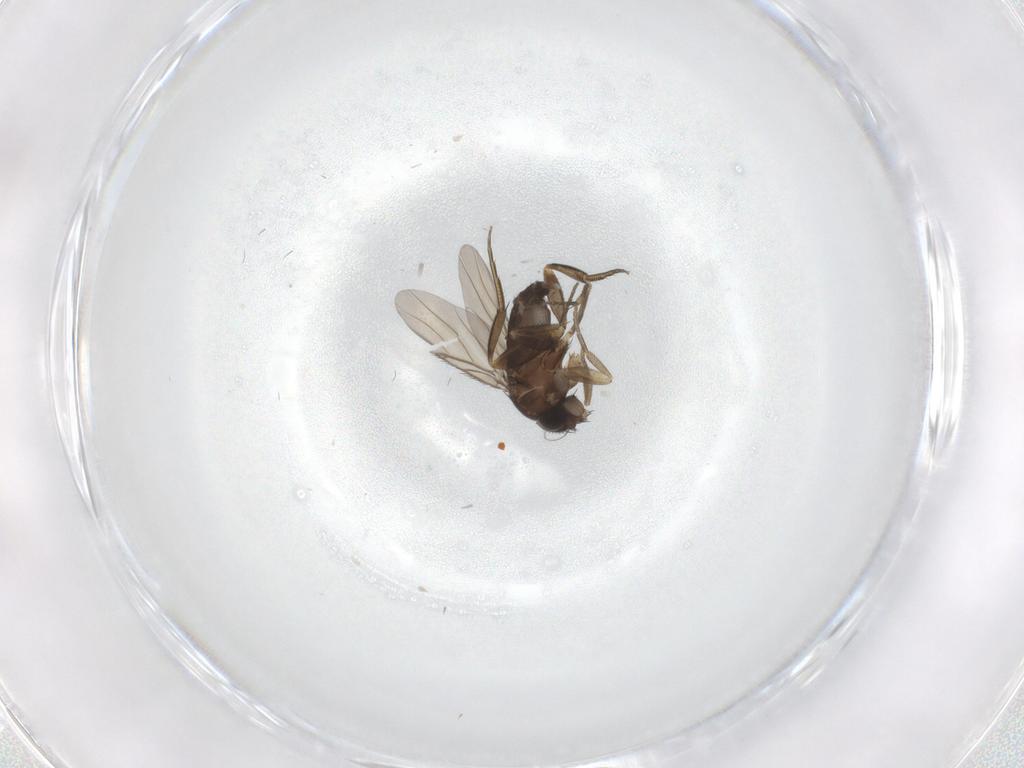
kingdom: Animalia
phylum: Arthropoda
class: Insecta
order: Diptera
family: Phoridae
